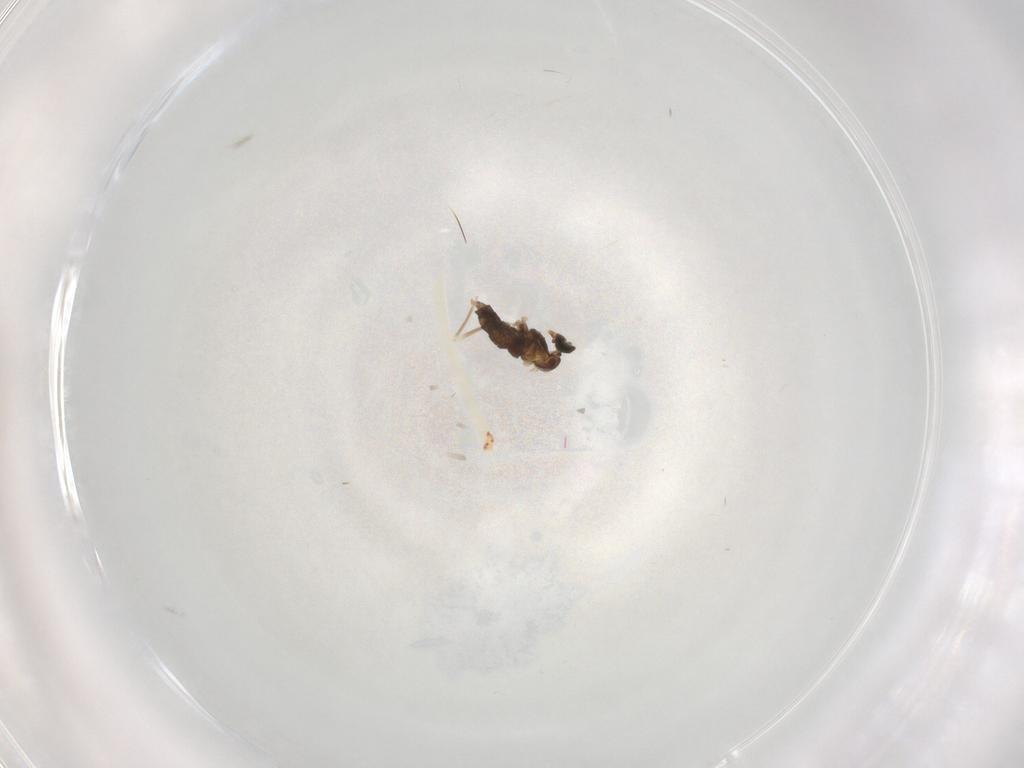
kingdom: Animalia
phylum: Arthropoda
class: Insecta
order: Diptera
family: Cecidomyiidae
